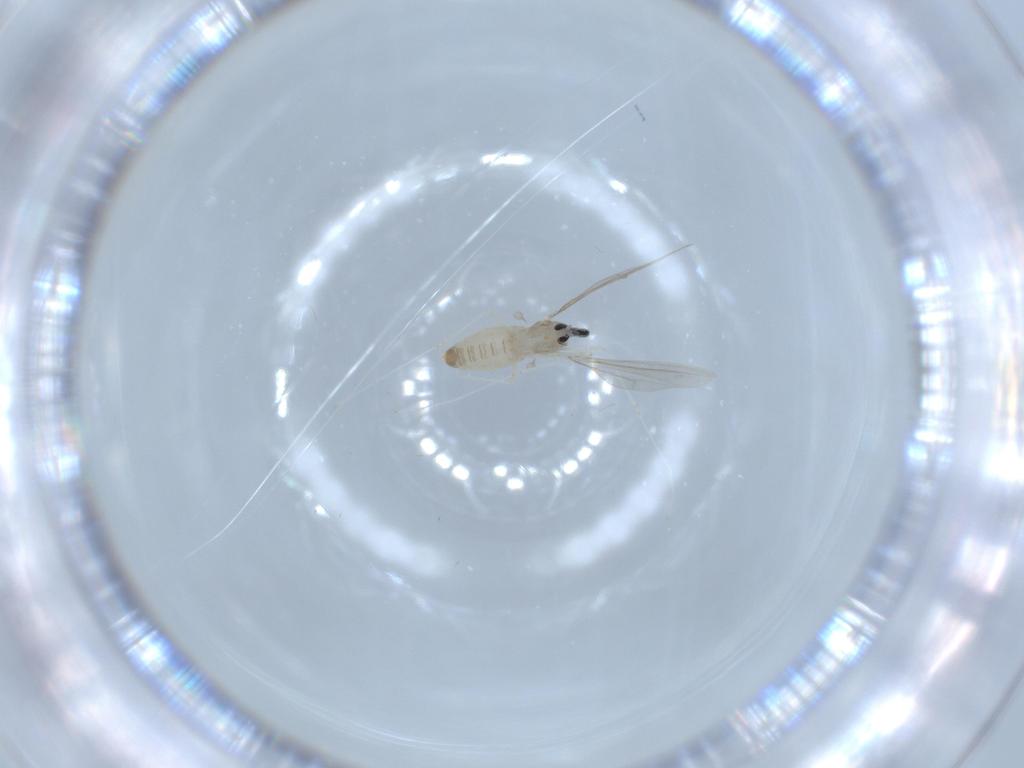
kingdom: Animalia
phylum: Arthropoda
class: Insecta
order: Diptera
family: Cecidomyiidae
